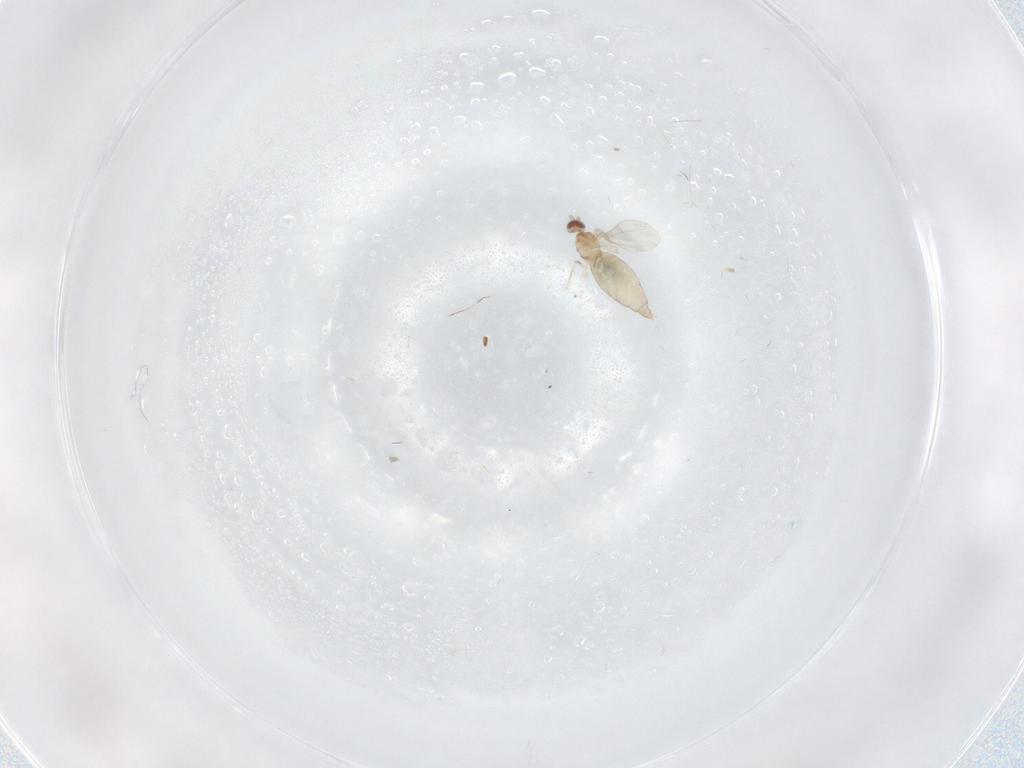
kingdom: Animalia
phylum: Arthropoda
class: Insecta
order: Diptera
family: Cecidomyiidae
